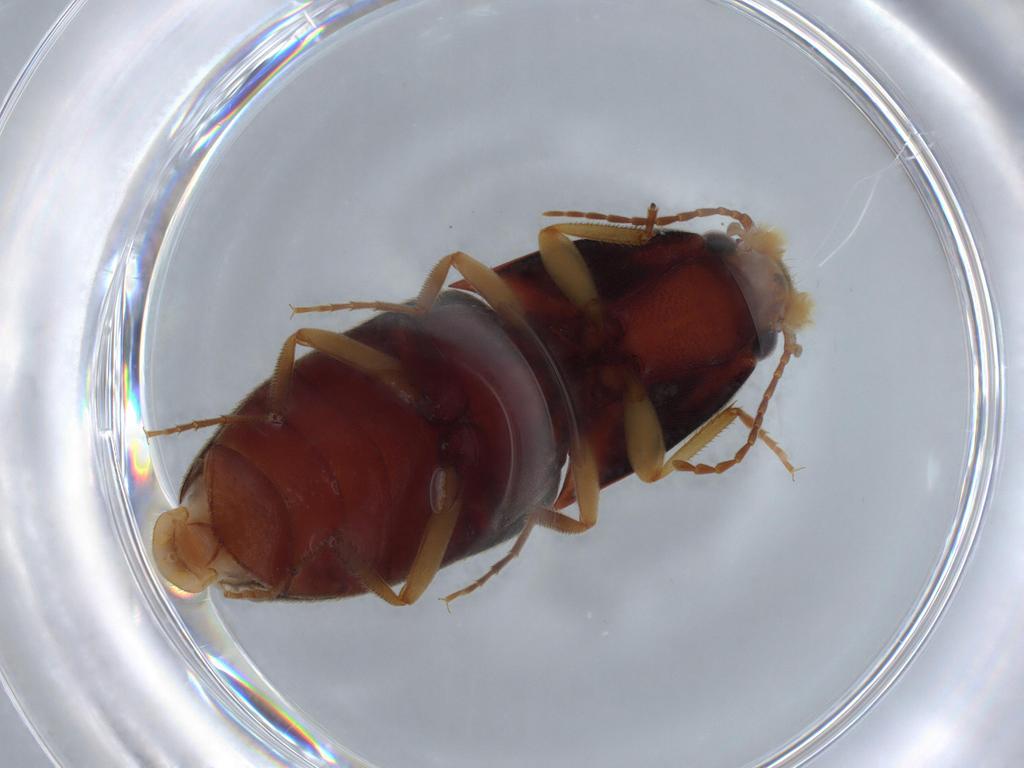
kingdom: Animalia
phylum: Arthropoda
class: Insecta
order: Coleoptera
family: Elateridae
